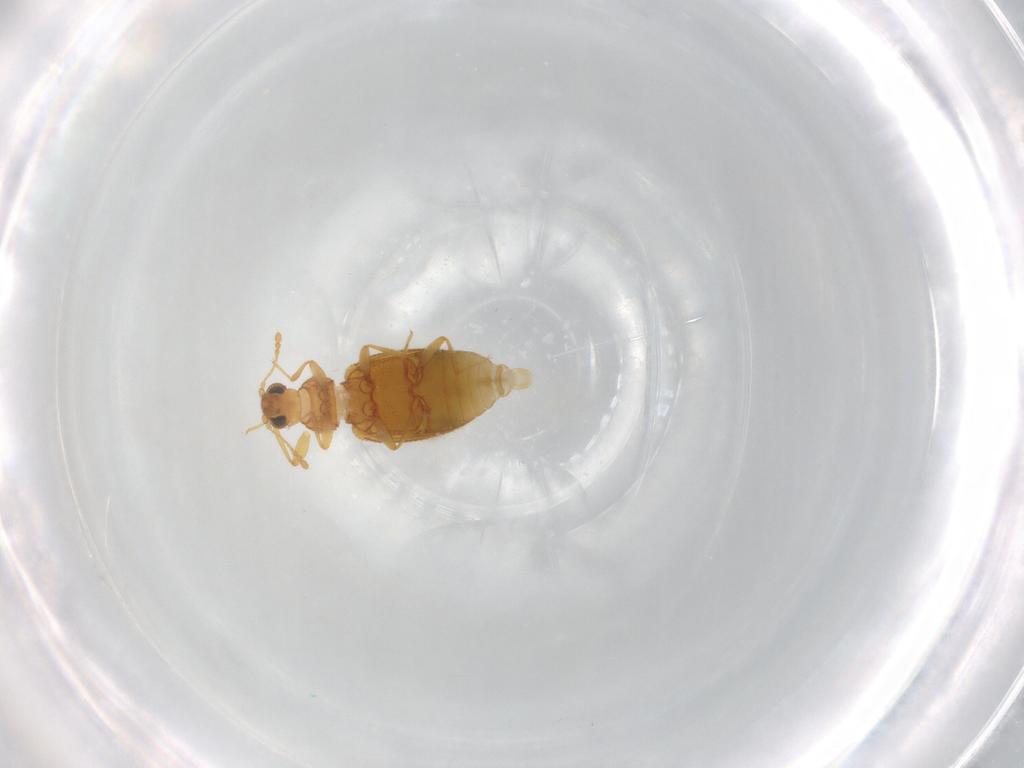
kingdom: Animalia
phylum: Arthropoda
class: Insecta
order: Coleoptera
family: Latridiidae
